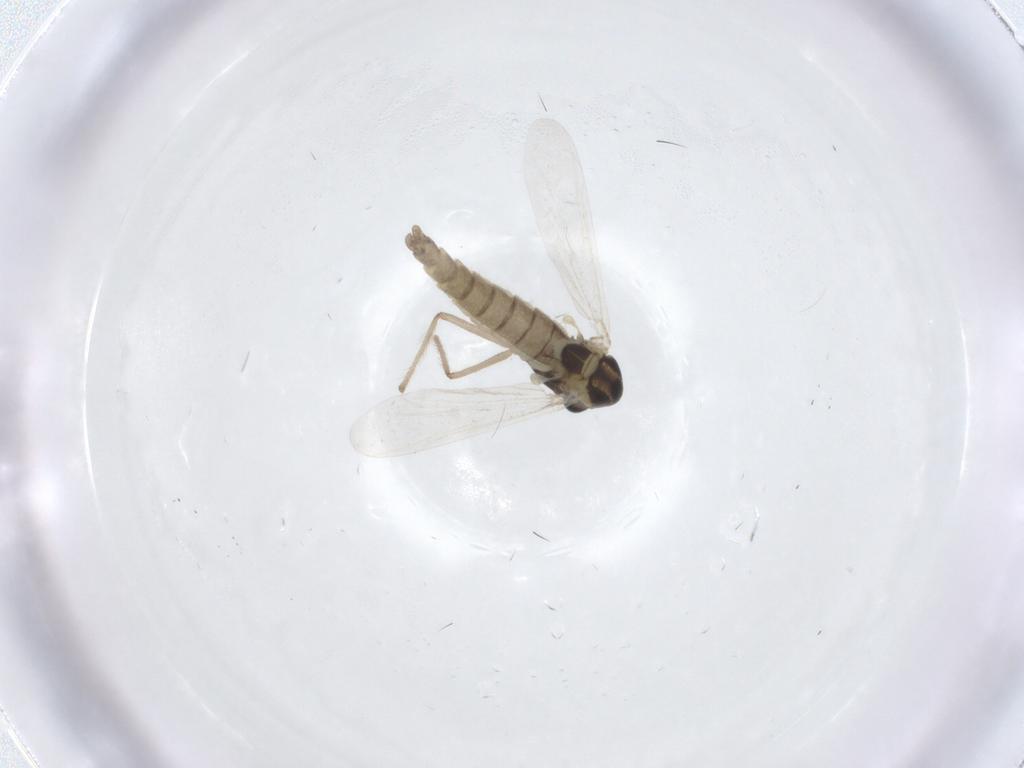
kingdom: Animalia
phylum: Arthropoda
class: Insecta
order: Diptera
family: Chironomidae
